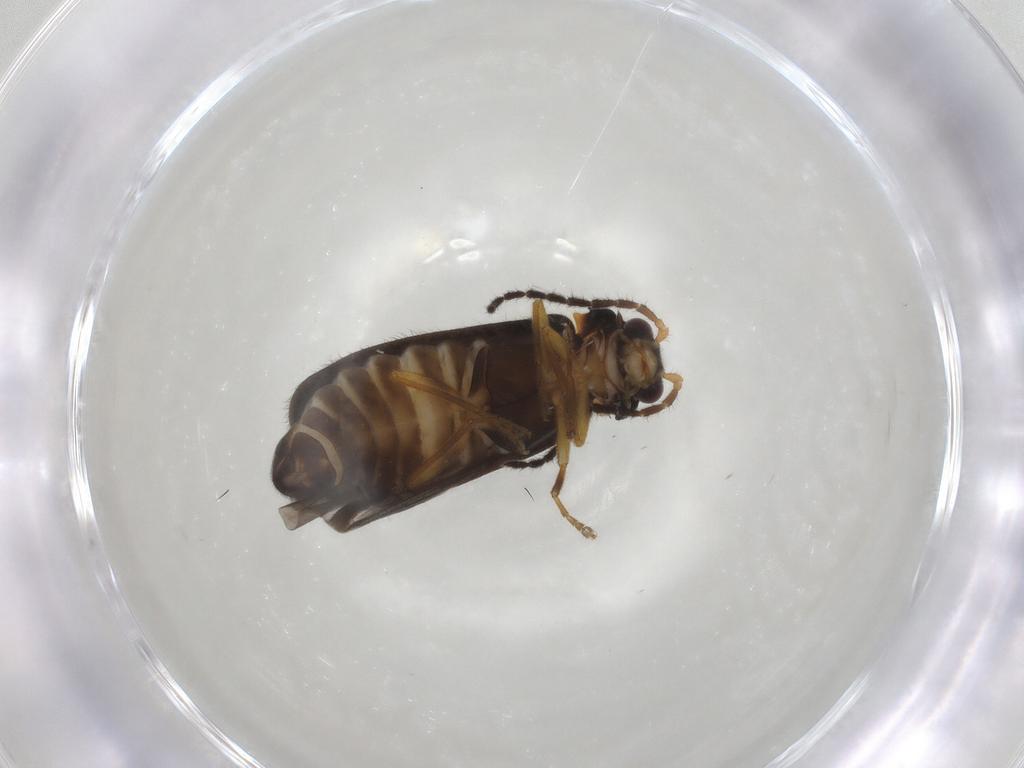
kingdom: Animalia
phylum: Arthropoda
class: Insecta
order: Coleoptera
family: Cantharidae
